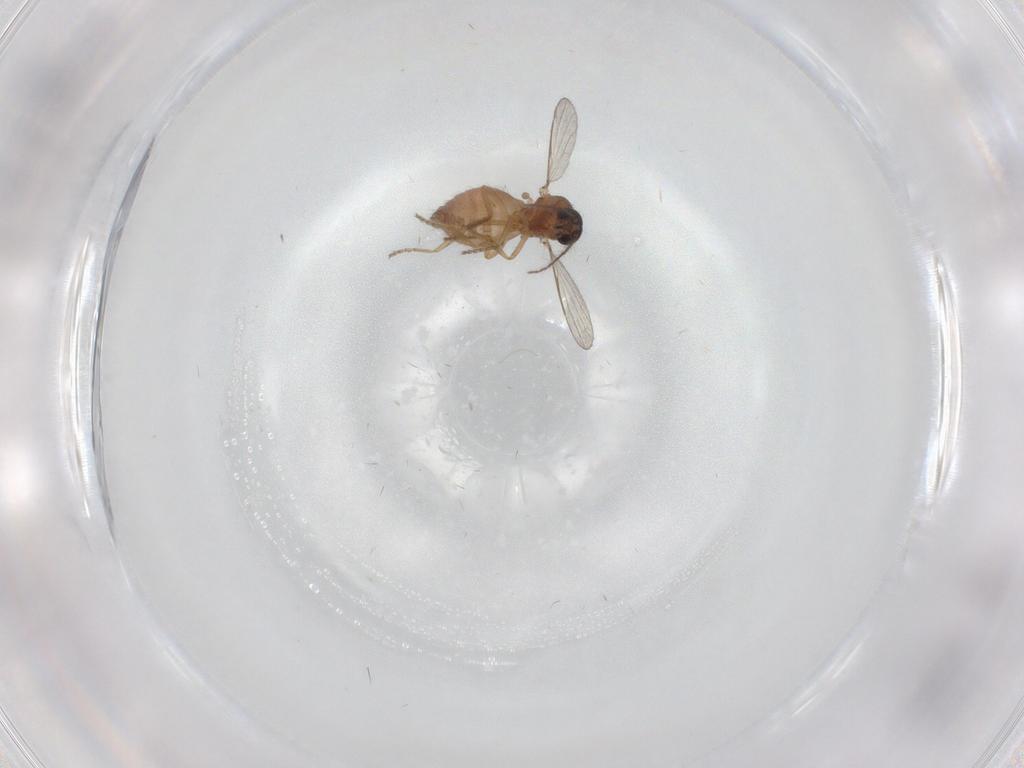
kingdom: Animalia
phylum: Arthropoda
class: Insecta
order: Diptera
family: Ceratopogonidae
